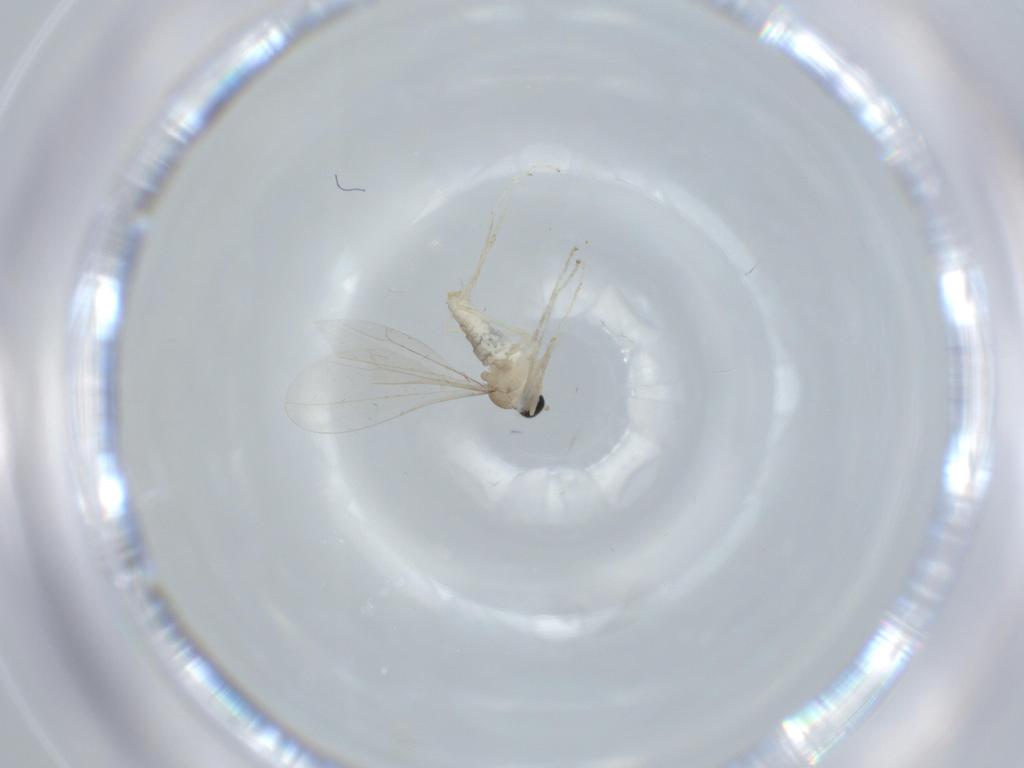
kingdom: Animalia
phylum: Arthropoda
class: Insecta
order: Diptera
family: Cecidomyiidae
